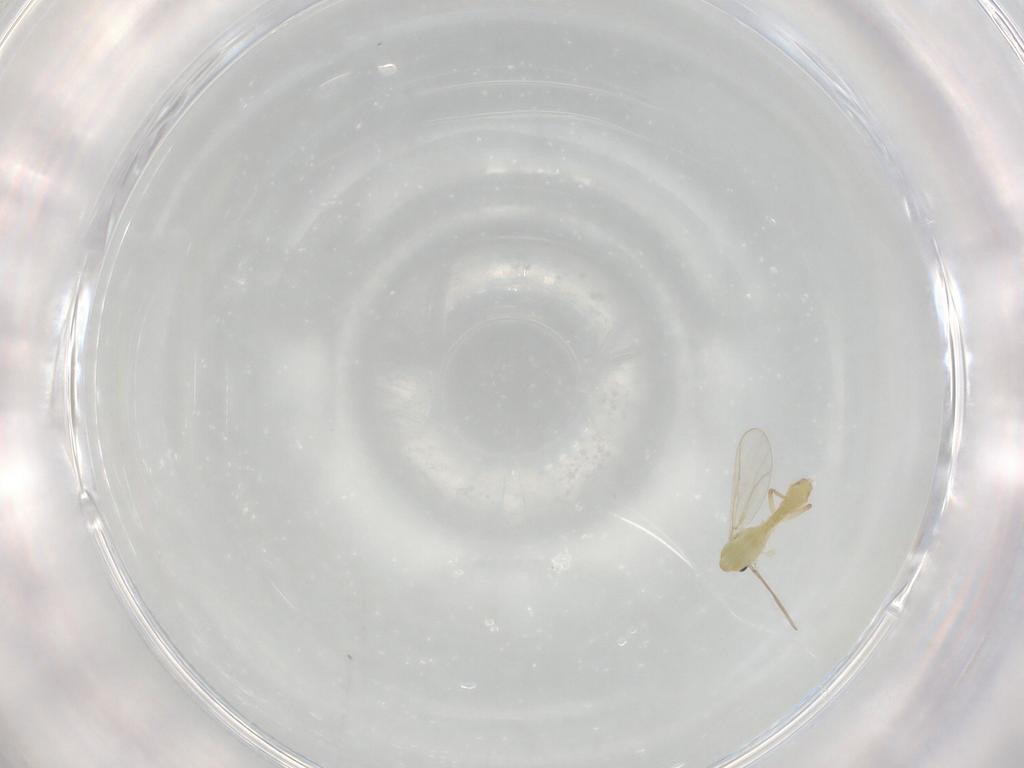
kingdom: Animalia
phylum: Arthropoda
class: Insecta
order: Diptera
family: Chironomidae
